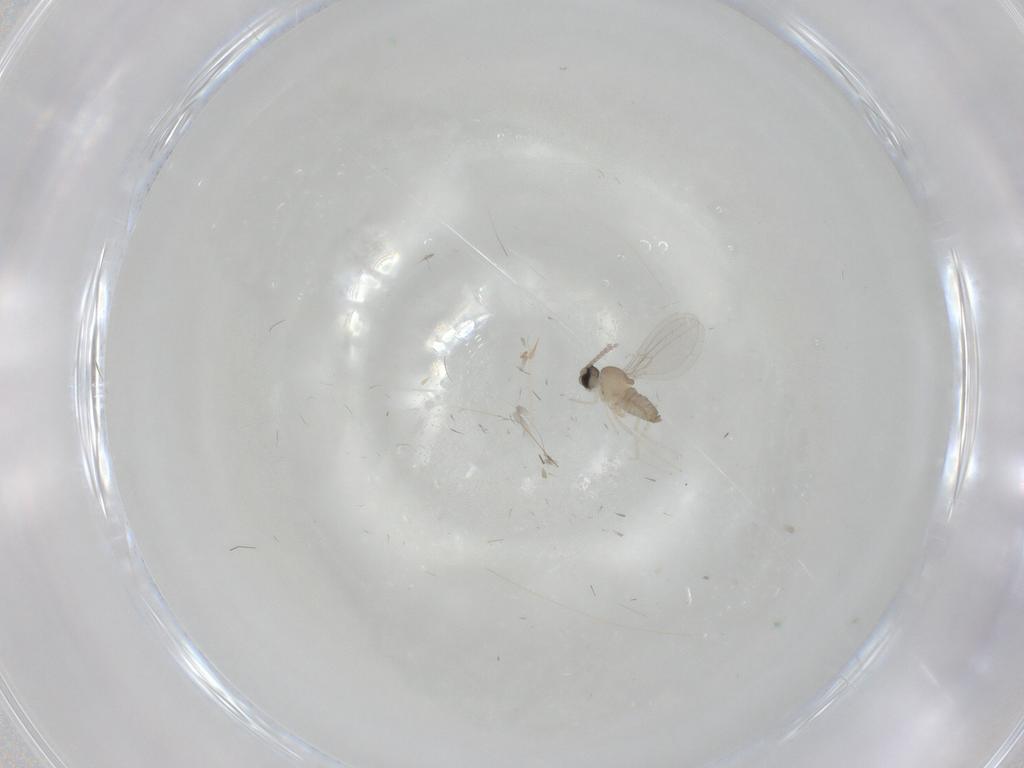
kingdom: Animalia
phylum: Arthropoda
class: Insecta
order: Diptera
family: Cecidomyiidae
